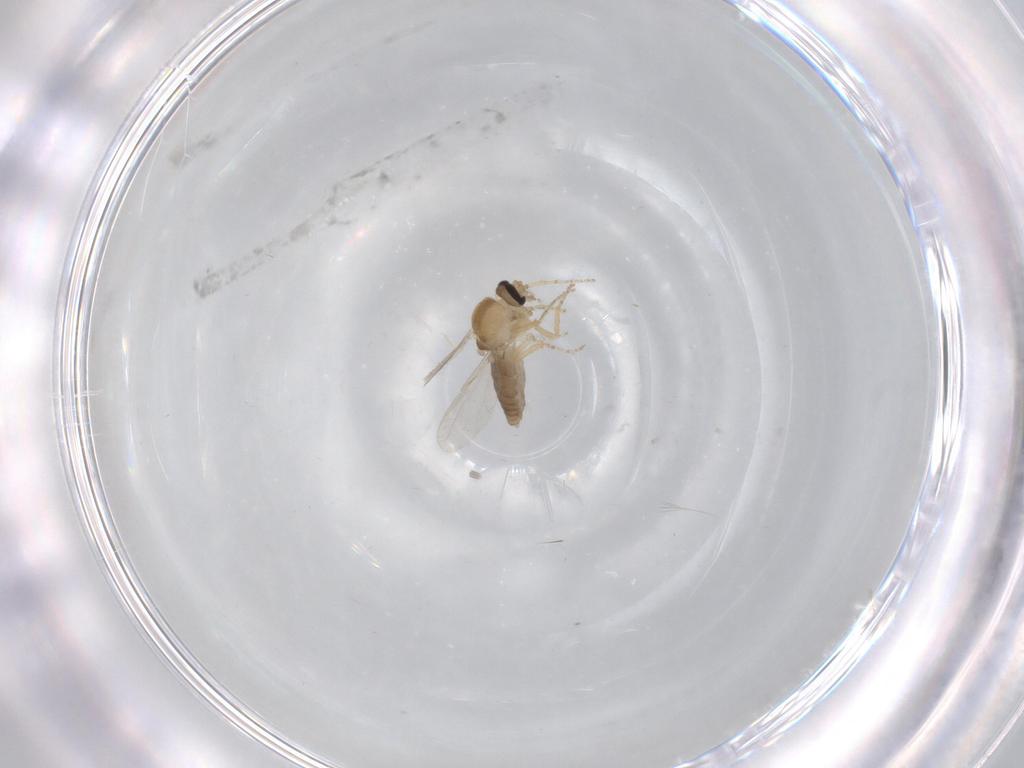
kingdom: Animalia
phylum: Arthropoda
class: Insecta
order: Diptera
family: Ceratopogonidae
